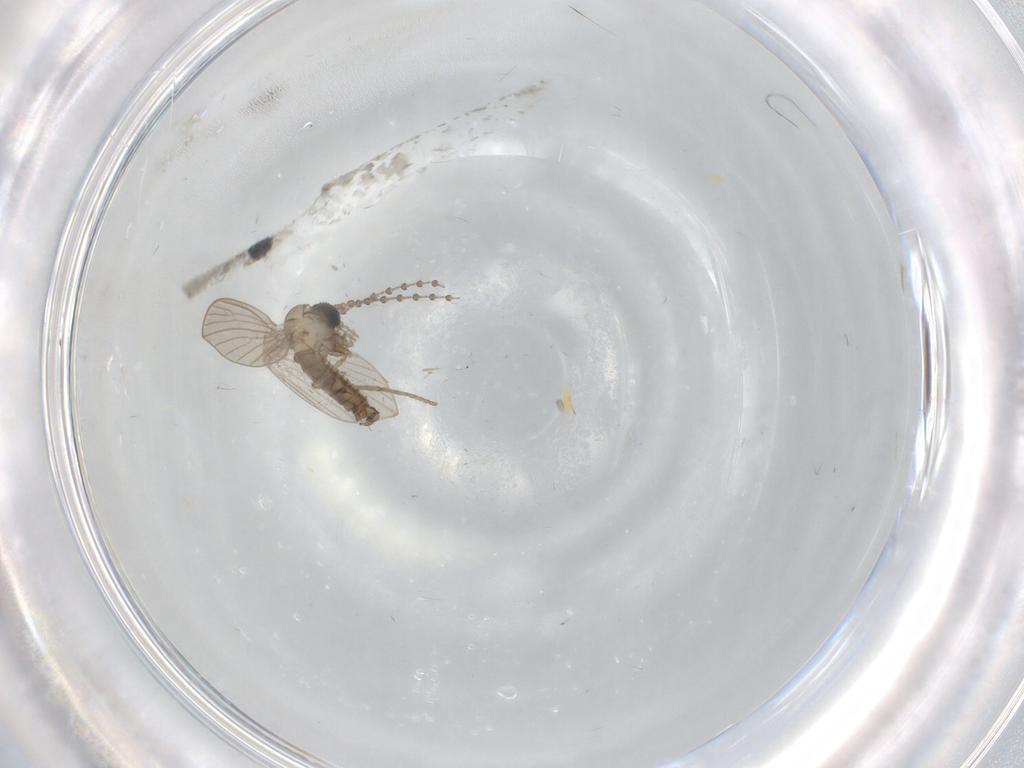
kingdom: Animalia
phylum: Arthropoda
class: Insecta
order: Diptera
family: Psychodidae
